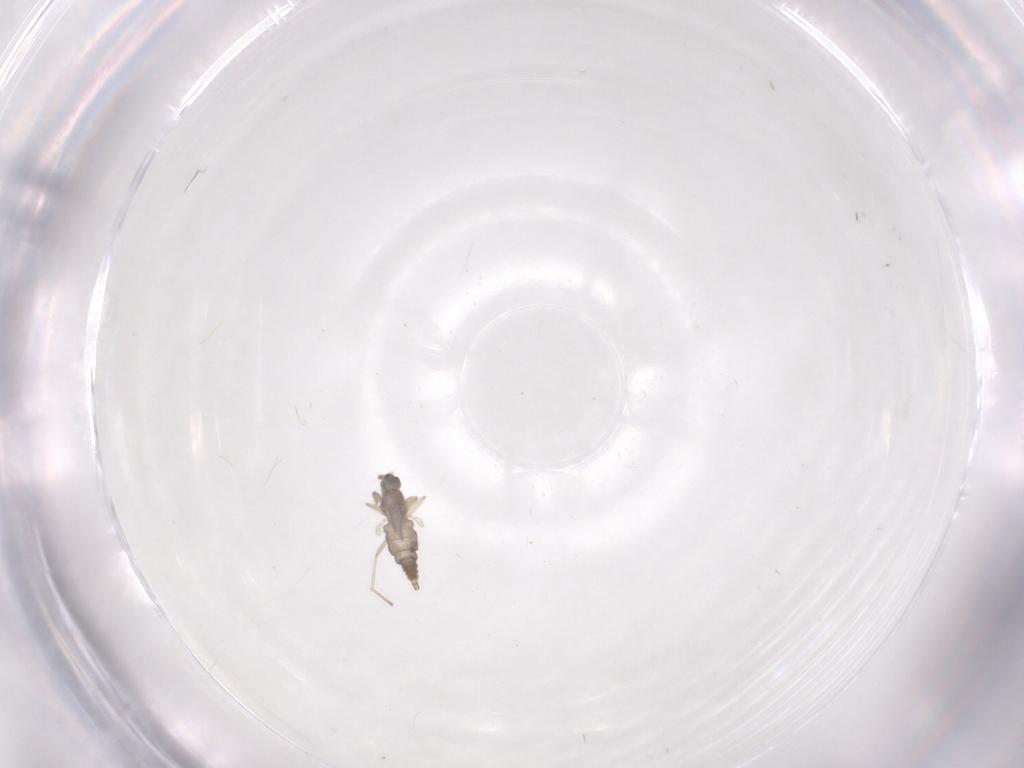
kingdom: Animalia
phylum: Arthropoda
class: Insecta
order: Diptera
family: Cecidomyiidae
